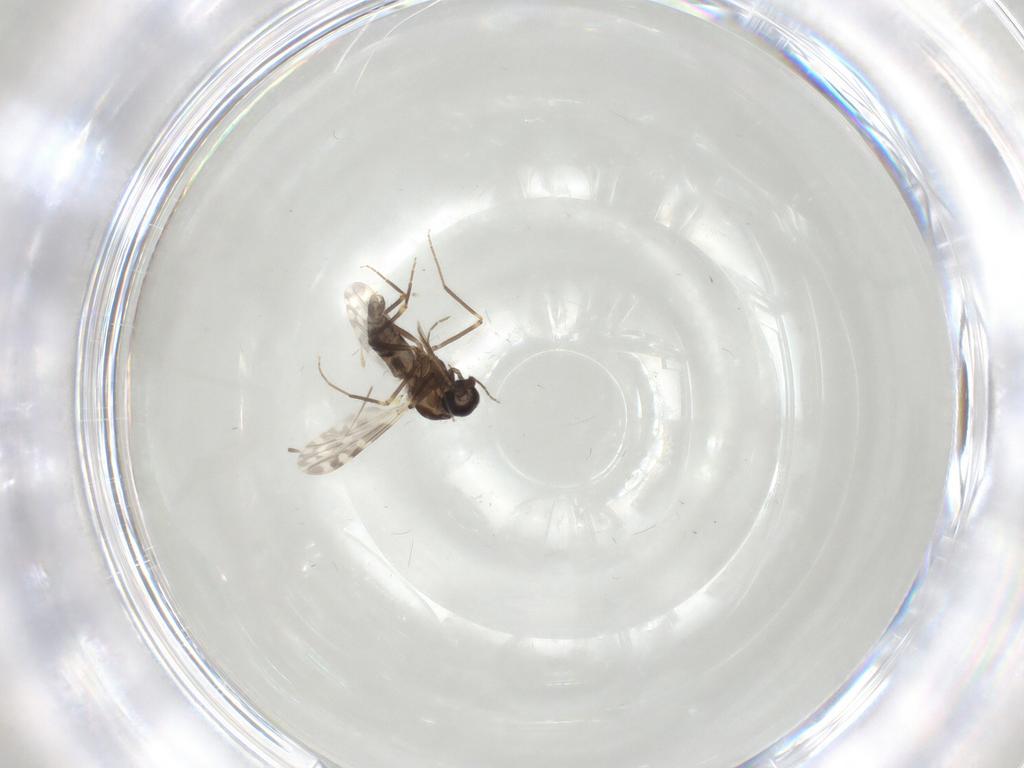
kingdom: Animalia
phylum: Arthropoda
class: Insecta
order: Diptera
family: Ceratopogonidae
